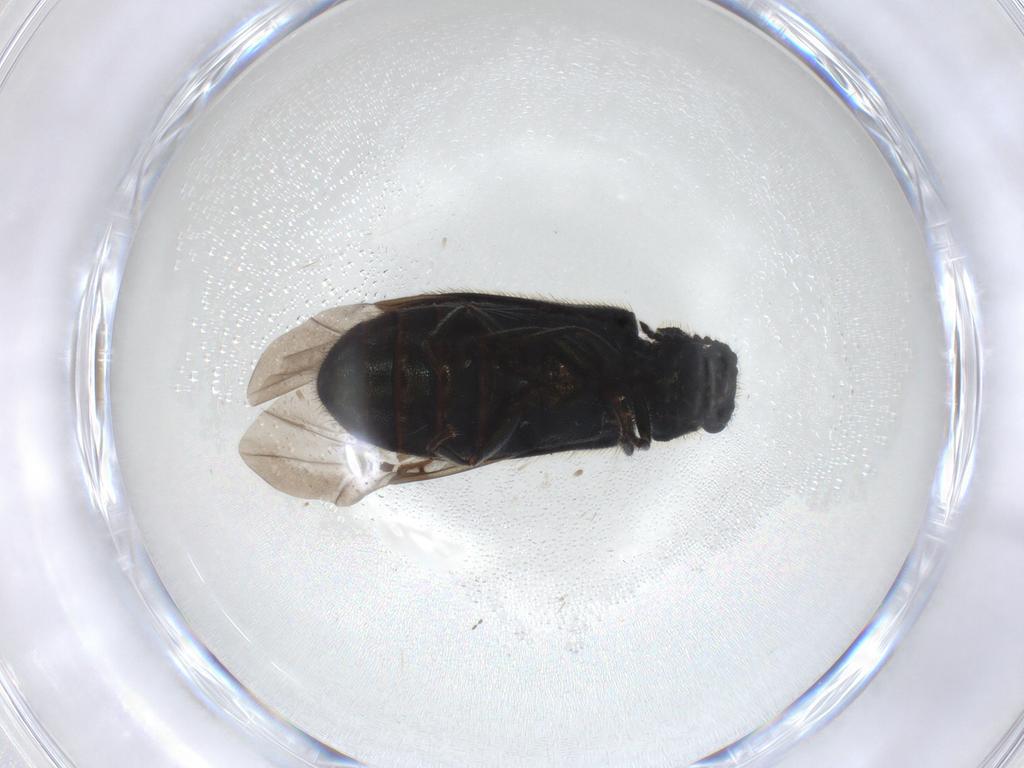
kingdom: Animalia
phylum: Arthropoda
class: Insecta
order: Coleoptera
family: Melyridae
